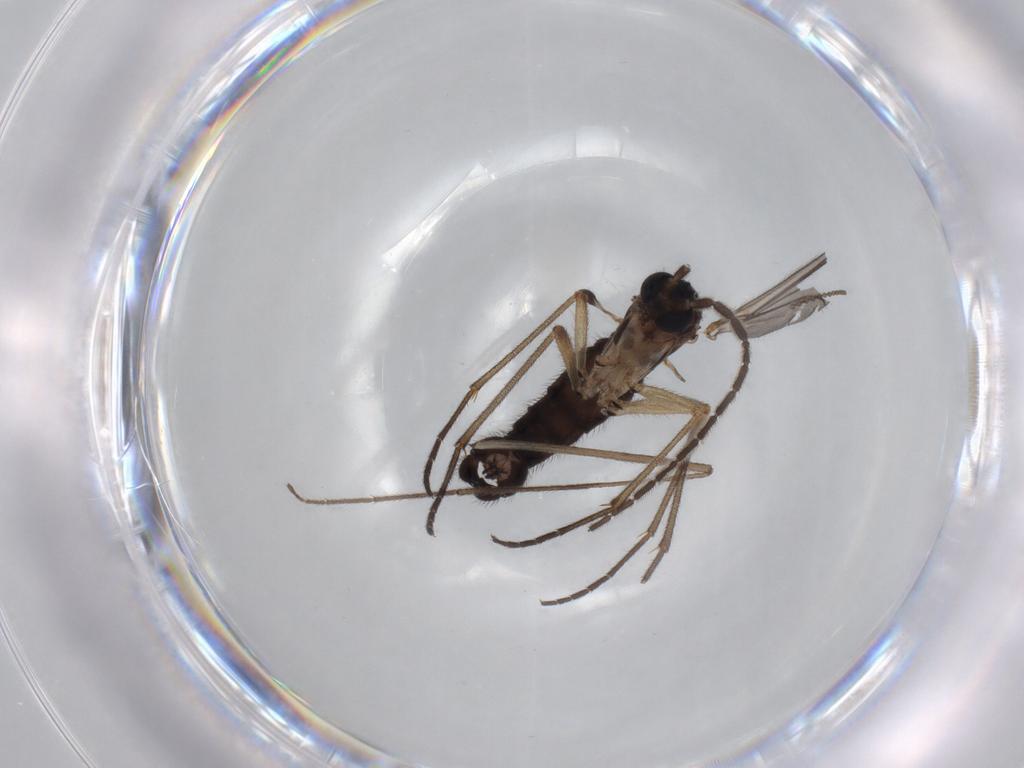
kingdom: Animalia
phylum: Arthropoda
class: Insecta
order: Diptera
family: Sciaridae
